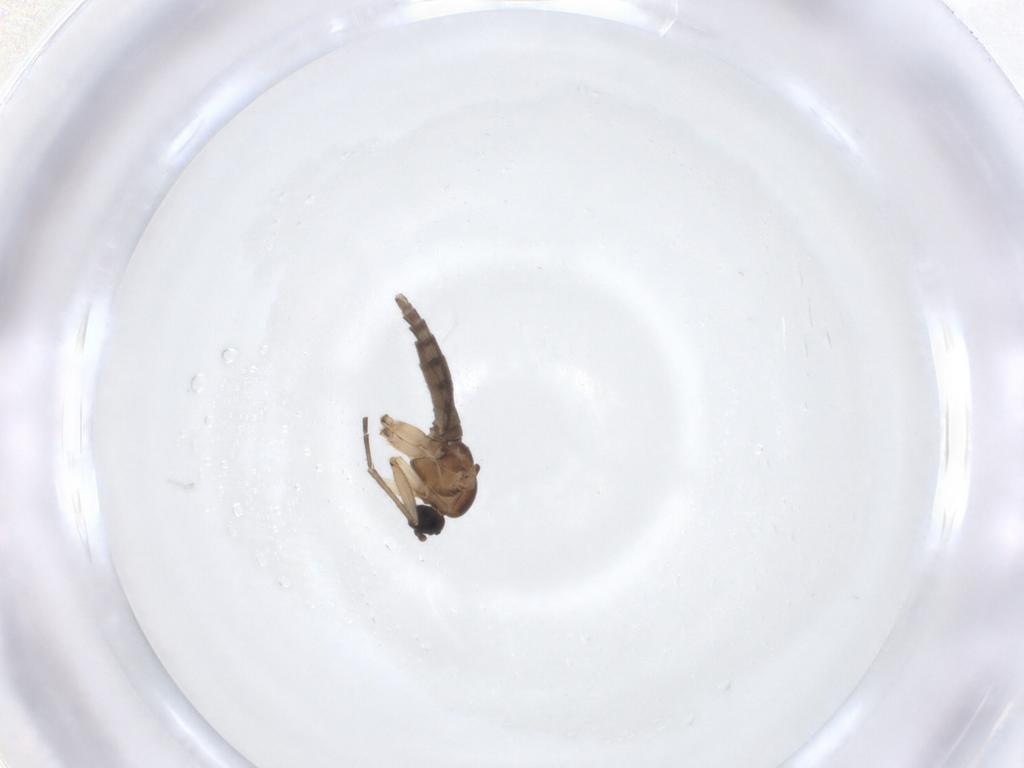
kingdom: Animalia
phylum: Arthropoda
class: Insecta
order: Diptera
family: Sciaridae
